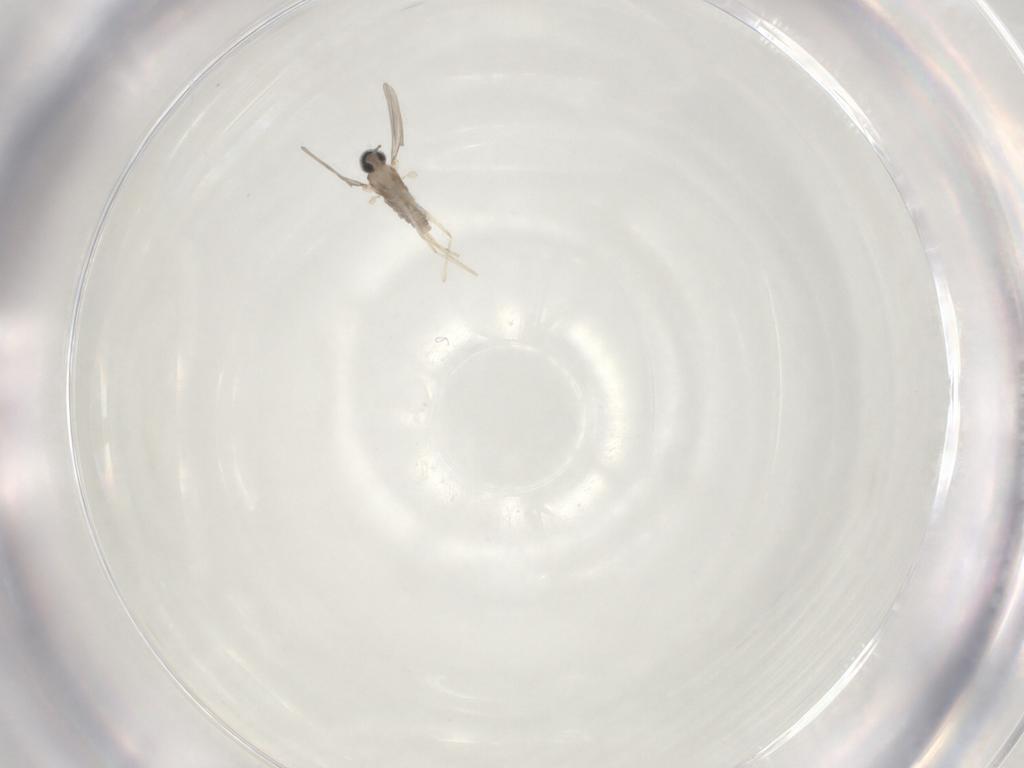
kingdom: Animalia
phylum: Arthropoda
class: Insecta
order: Diptera
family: Cecidomyiidae
